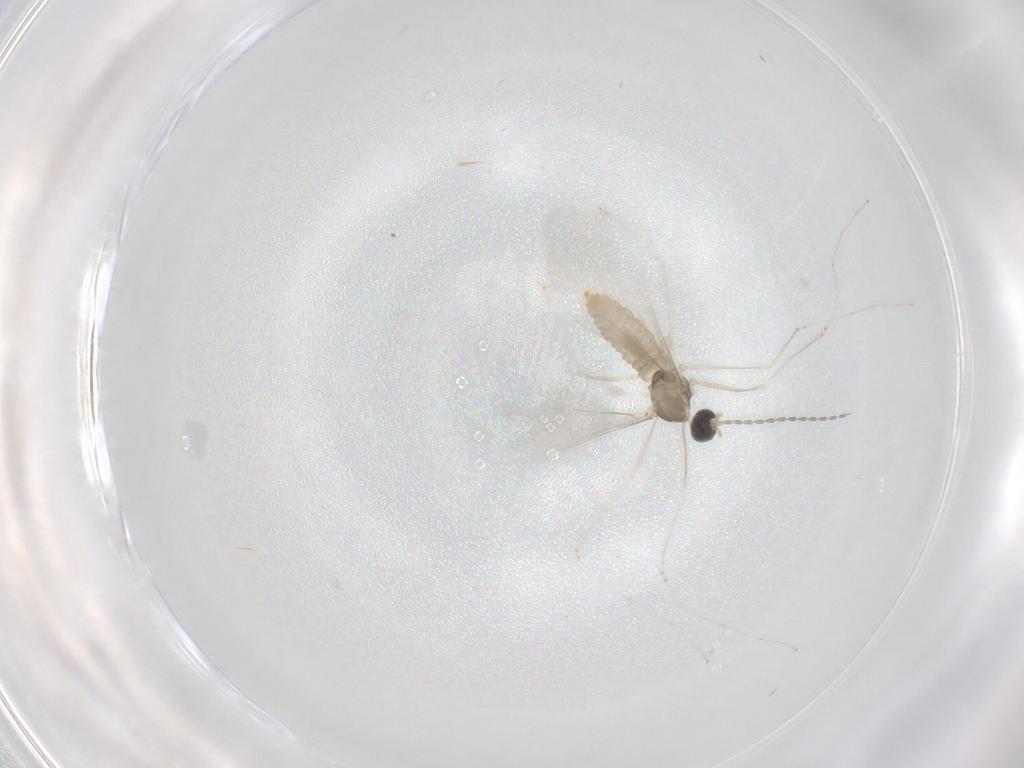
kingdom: Animalia
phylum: Arthropoda
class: Insecta
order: Diptera
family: Cecidomyiidae
